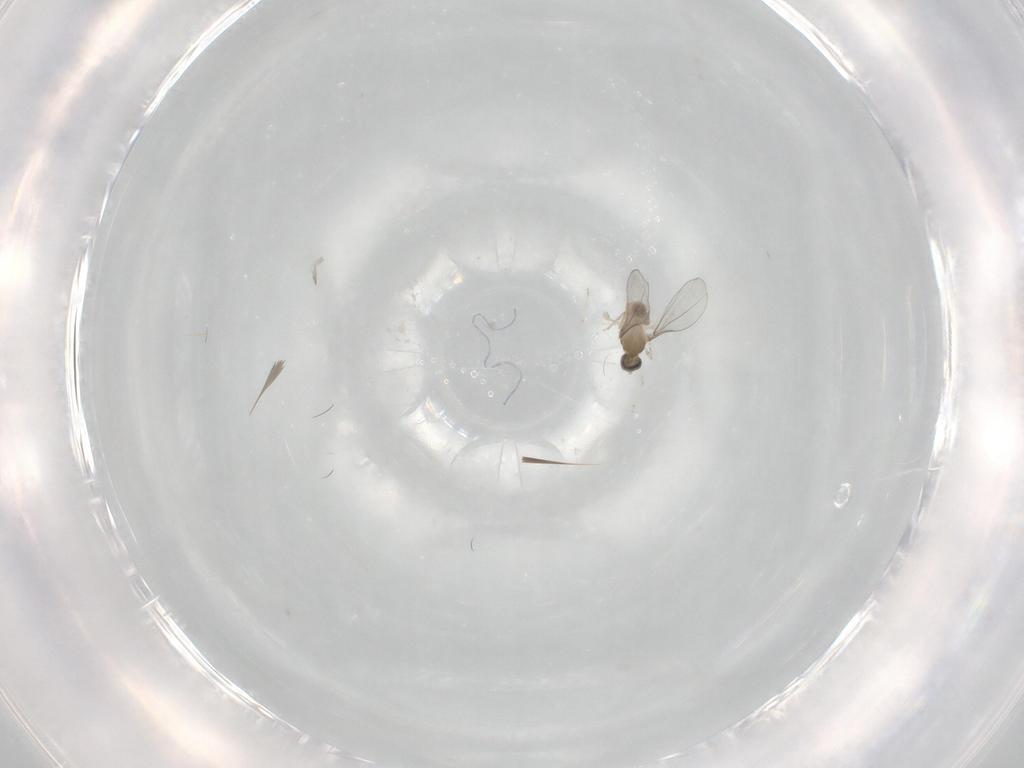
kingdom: Animalia
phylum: Arthropoda
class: Insecta
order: Diptera
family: Cecidomyiidae
